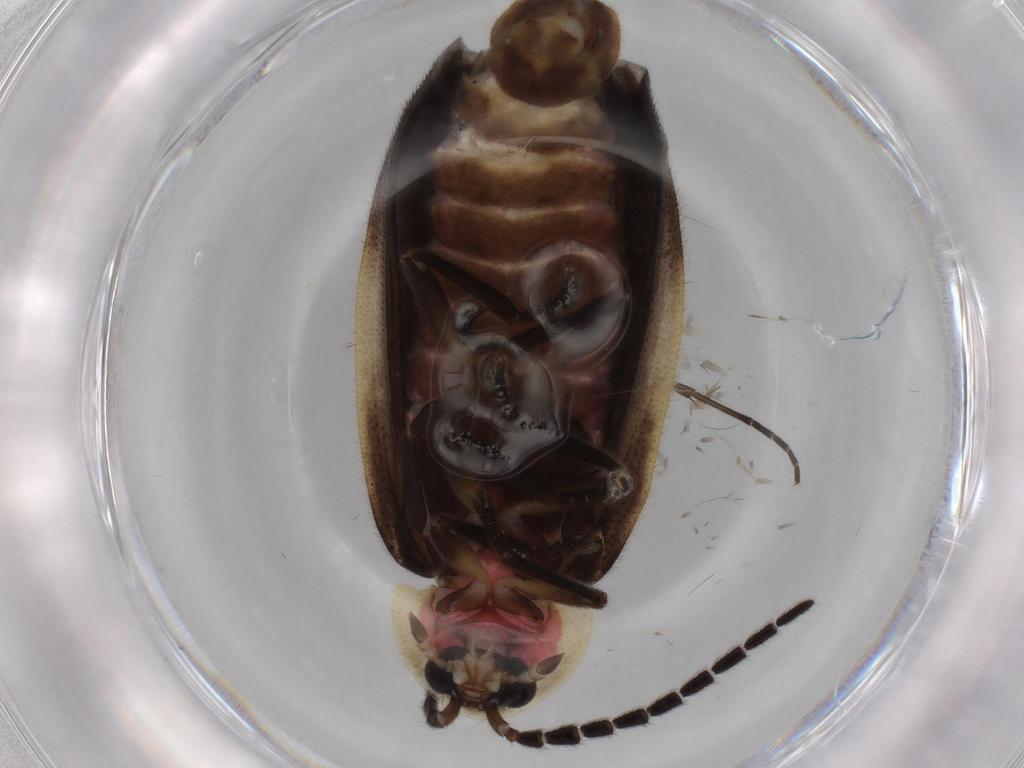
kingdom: Animalia
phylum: Arthropoda
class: Insecta
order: Coleoptera
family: Lampyridae
